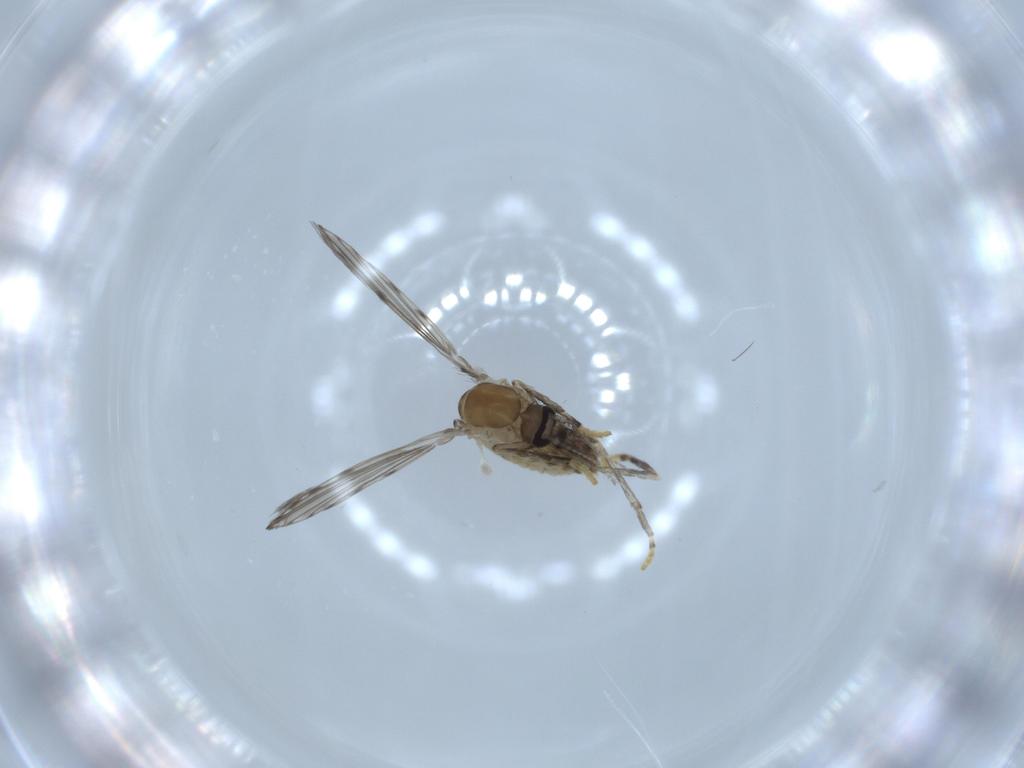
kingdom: Animalia
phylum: Arthropoda
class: Insecta
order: Diptera
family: Psychodidae
